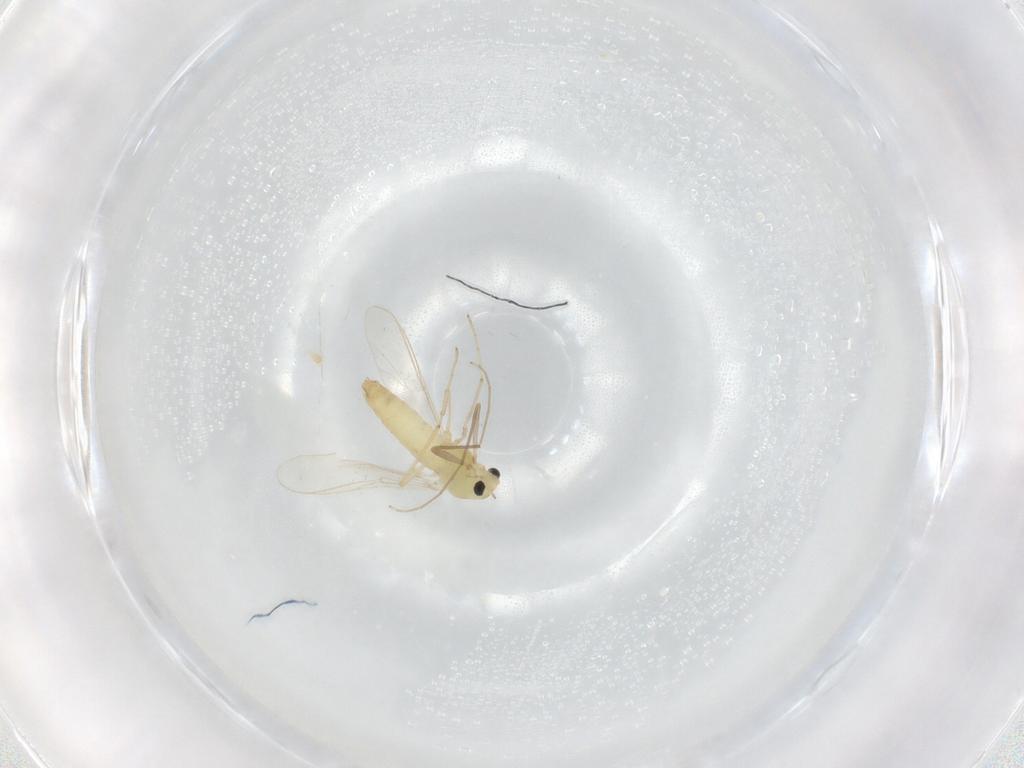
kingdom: Animalia
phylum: Arthropoda
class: Insecta
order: Diptera
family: Chironomidae
